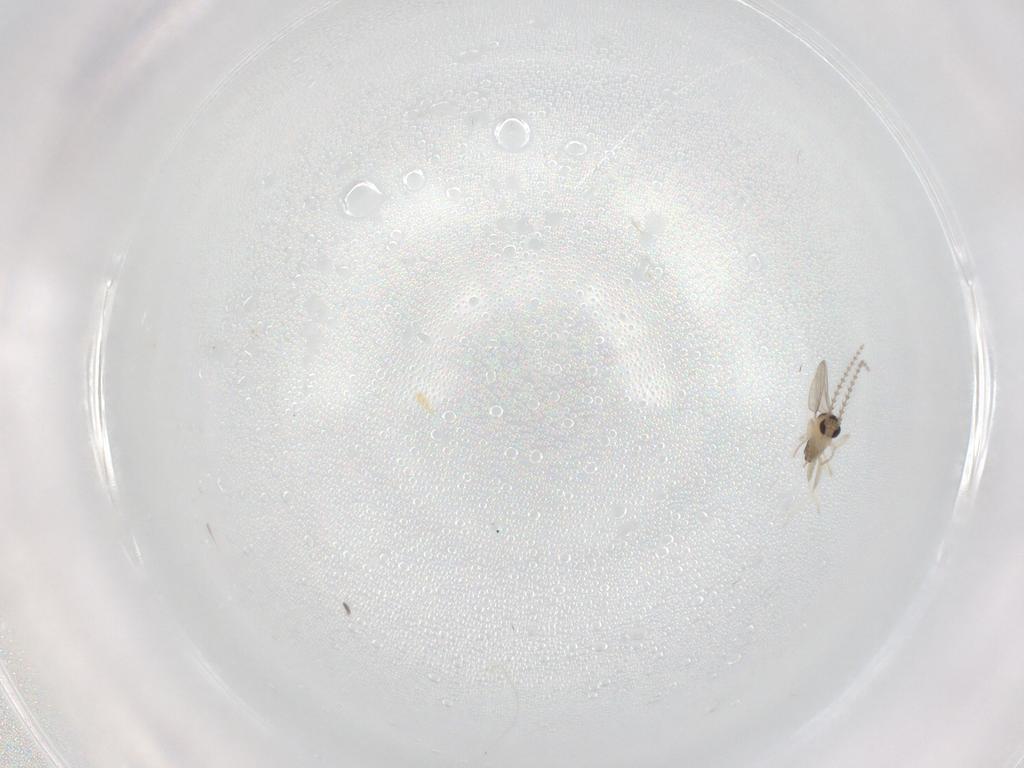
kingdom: Animalia
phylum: Arthropoda
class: Insecta
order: Diptera
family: Cecidomyiidae
